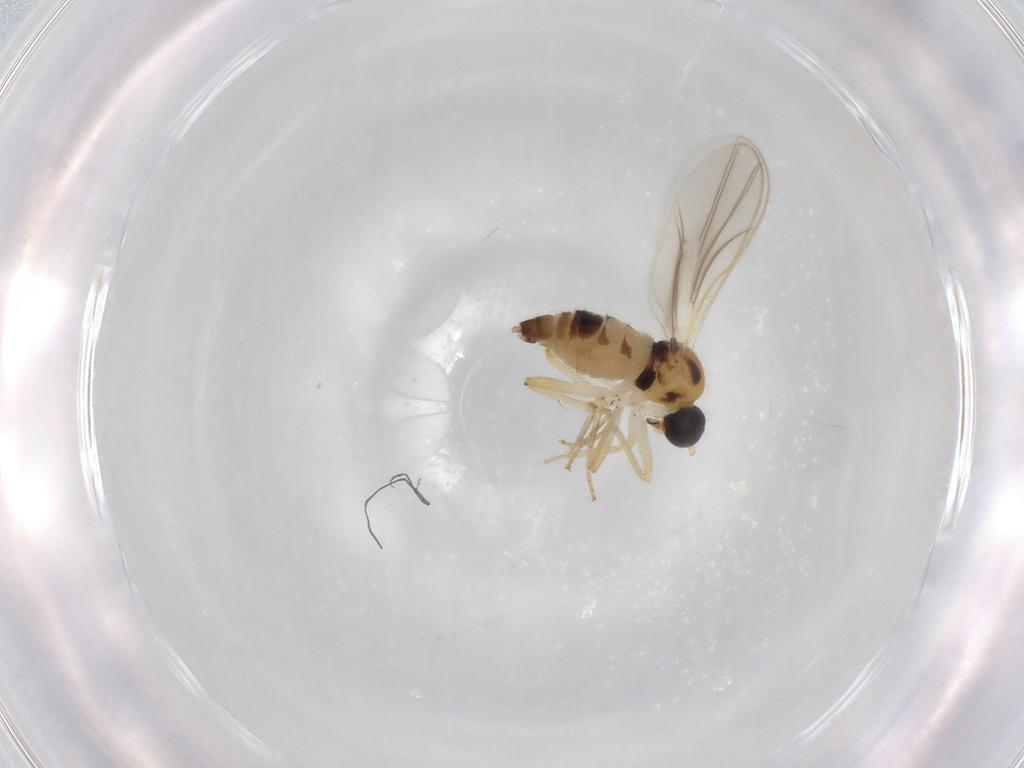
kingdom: Animalia
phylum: Arthropoda
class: Insecta
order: Diptera
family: Hybotidae
